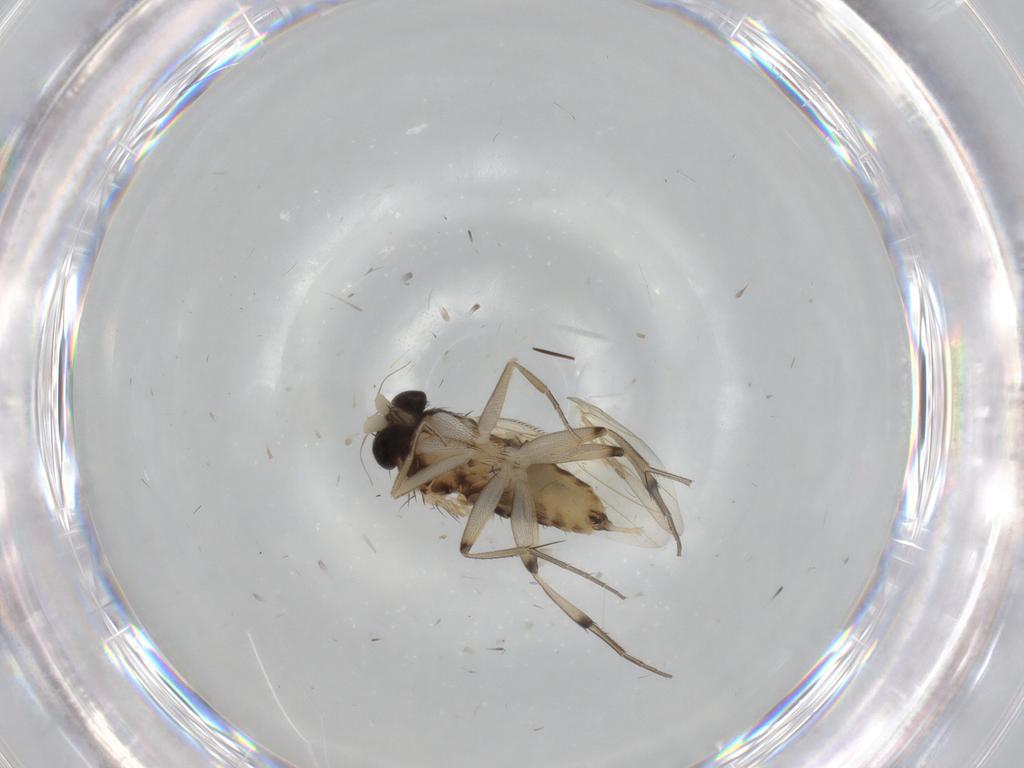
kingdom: Animalia
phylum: Arthropoda
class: Insecta
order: Diptera
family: Cecidomyiidae
